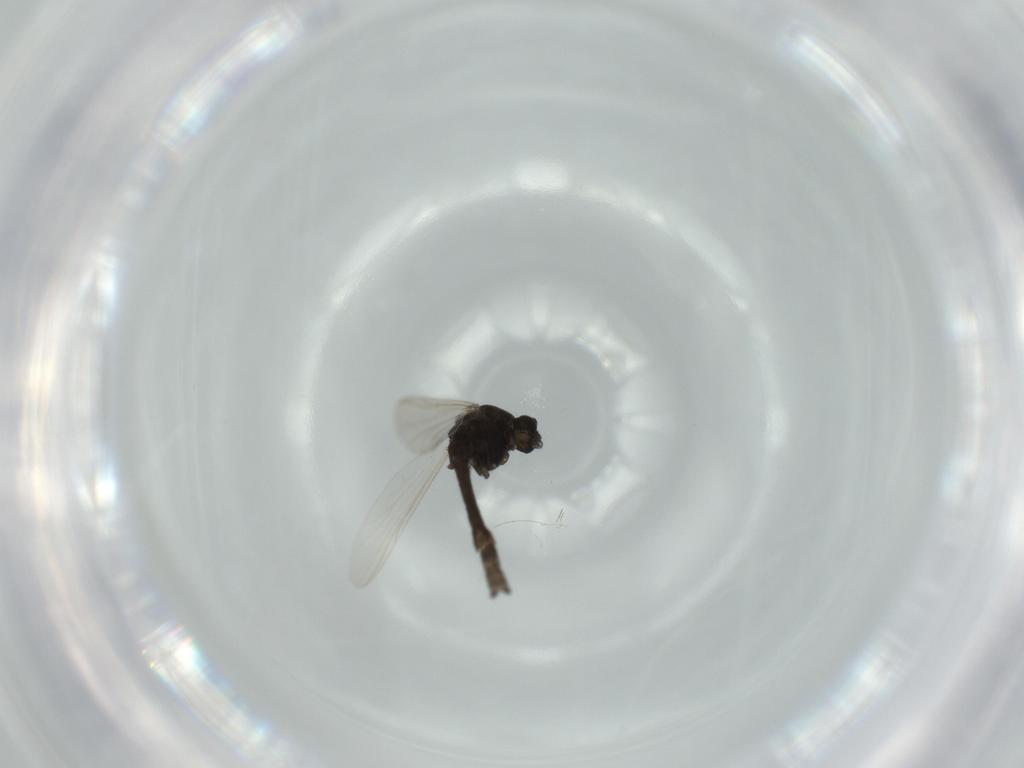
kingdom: Animalia
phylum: Arthropoda
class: Insecta
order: Diptera
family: Chironomidae
